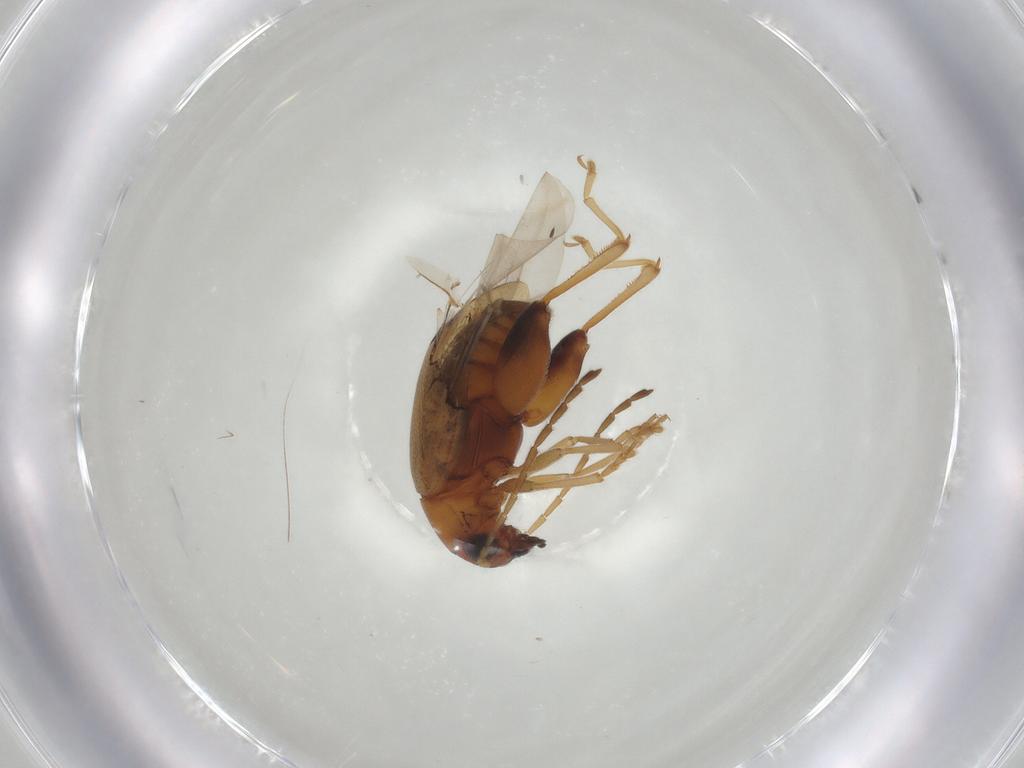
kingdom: Animalia
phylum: Arthropoda
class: Insecta
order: Coleoptera
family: Chrysomelidae
